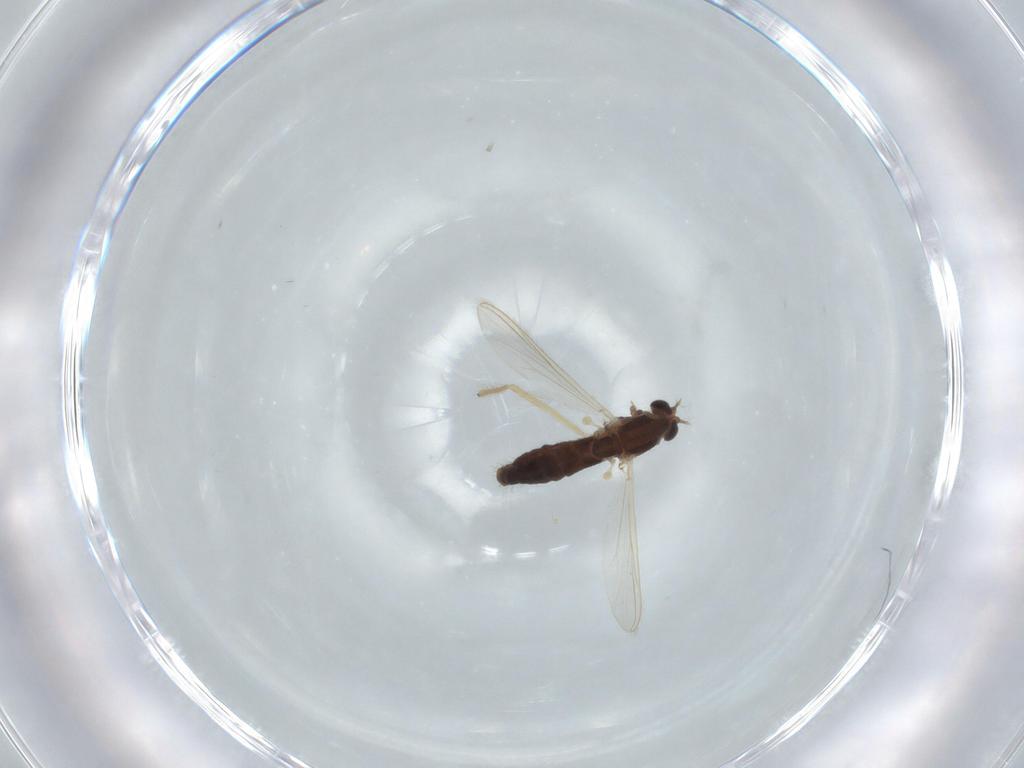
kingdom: Animalia
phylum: Arthropoda
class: Insecta
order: Diptera
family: Chironomidae
